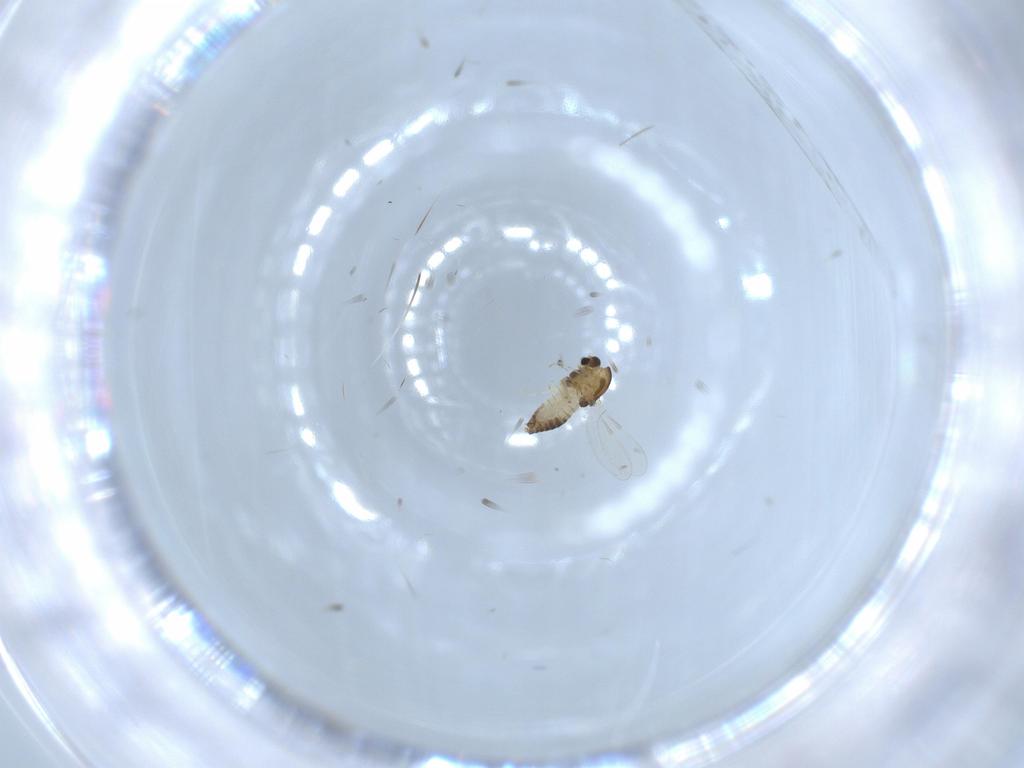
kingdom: Animalia
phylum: Arthropoda
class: Insecta
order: Diptera
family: Chironomidae
